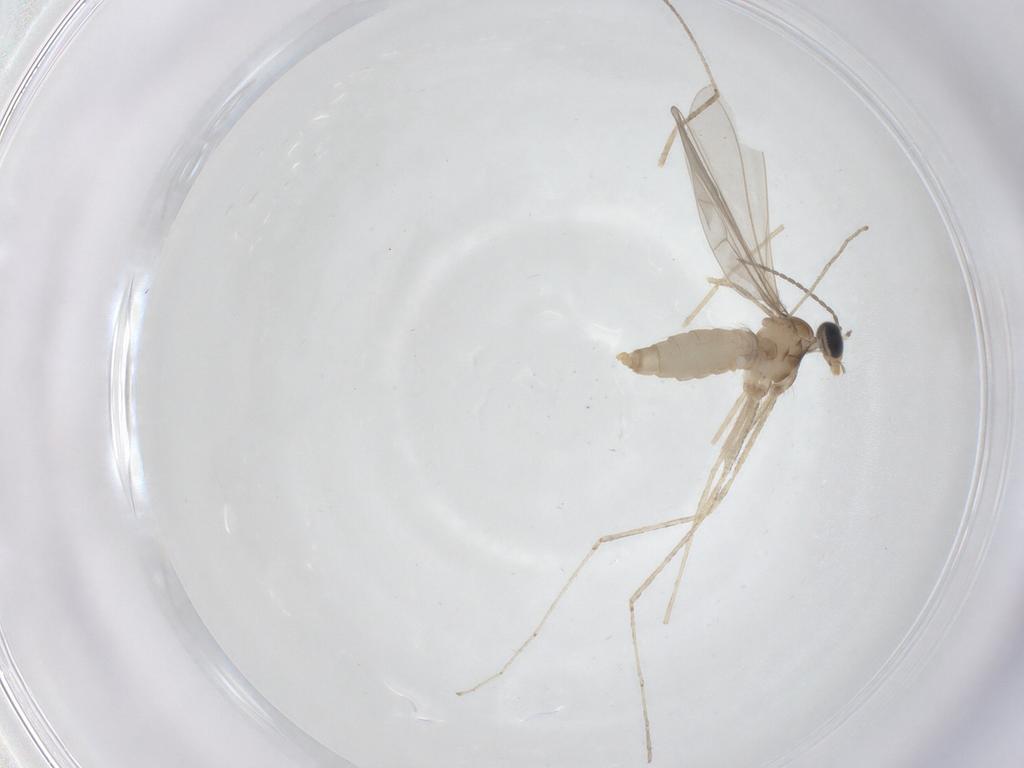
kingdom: Animalia
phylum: Arthropoda
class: Insecta
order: Diptera
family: Cecidomyiidae
